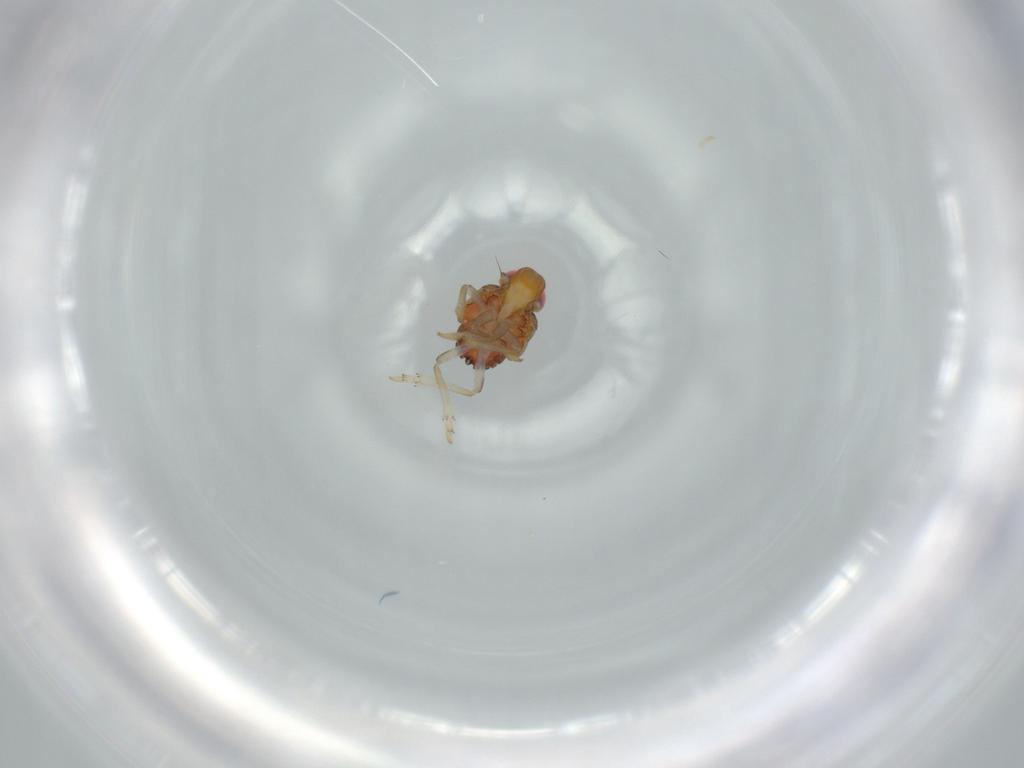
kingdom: Animalia
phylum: Arthropoda
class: Insecta
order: Hemiptera
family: Issidae
